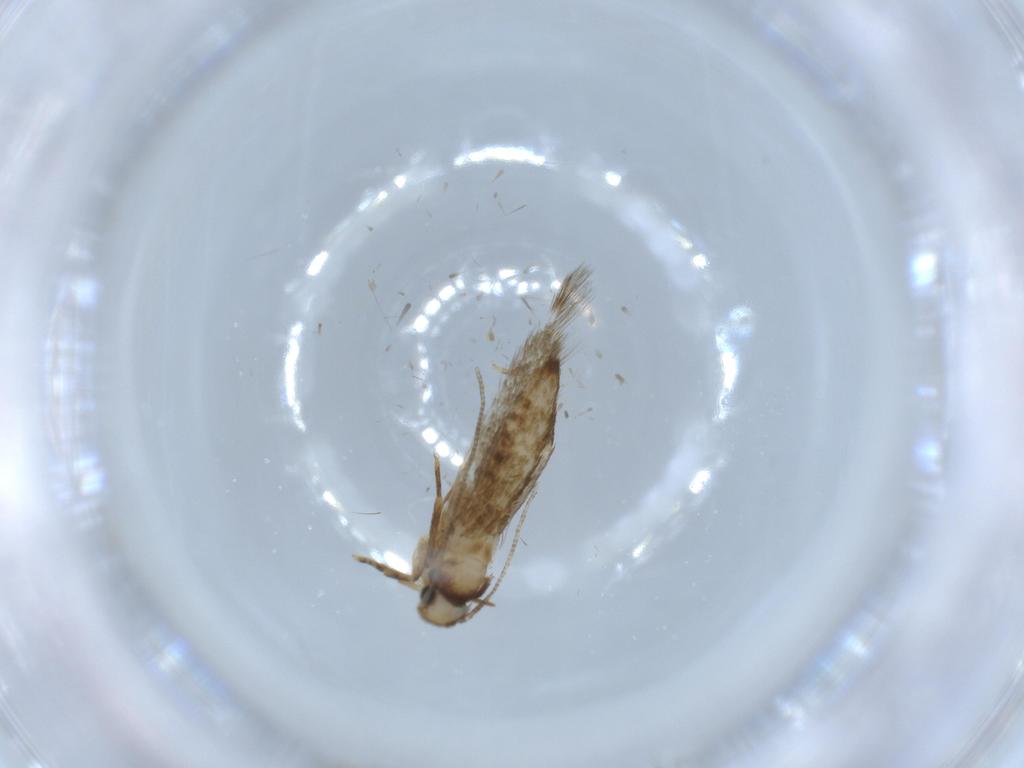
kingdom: Animalia
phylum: Arthropoda
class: Insecta
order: Lepidoptera
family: Tineidae
